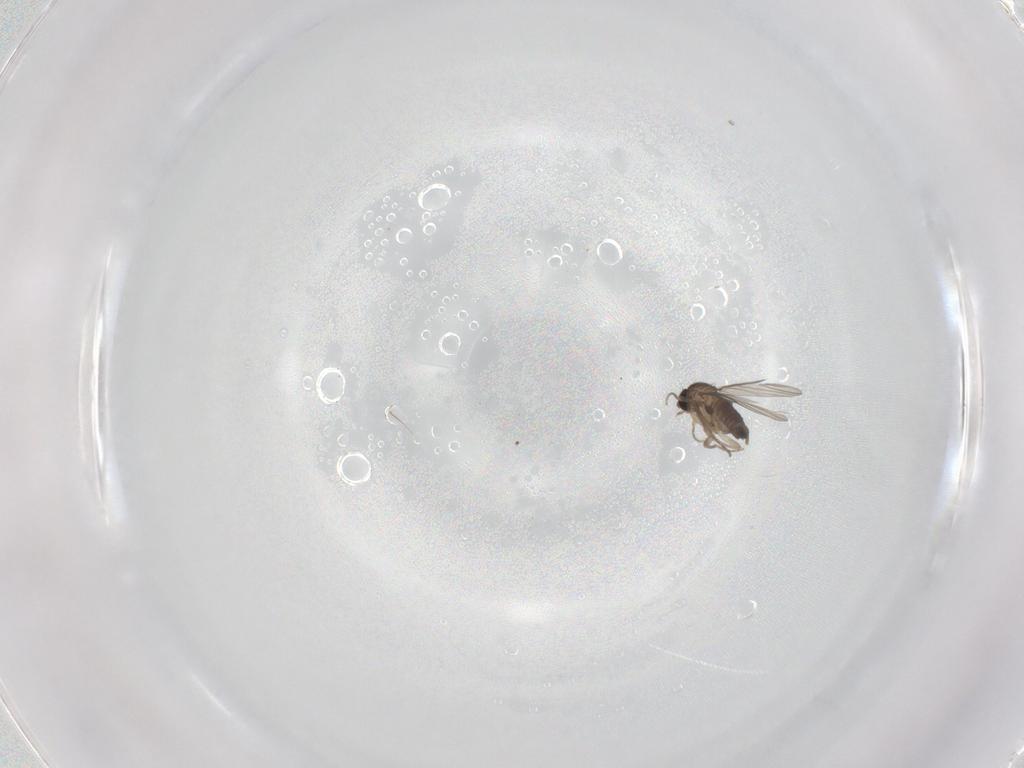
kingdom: Animalia
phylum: Arthropoda
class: Insecta
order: Diptera
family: Phoridae
